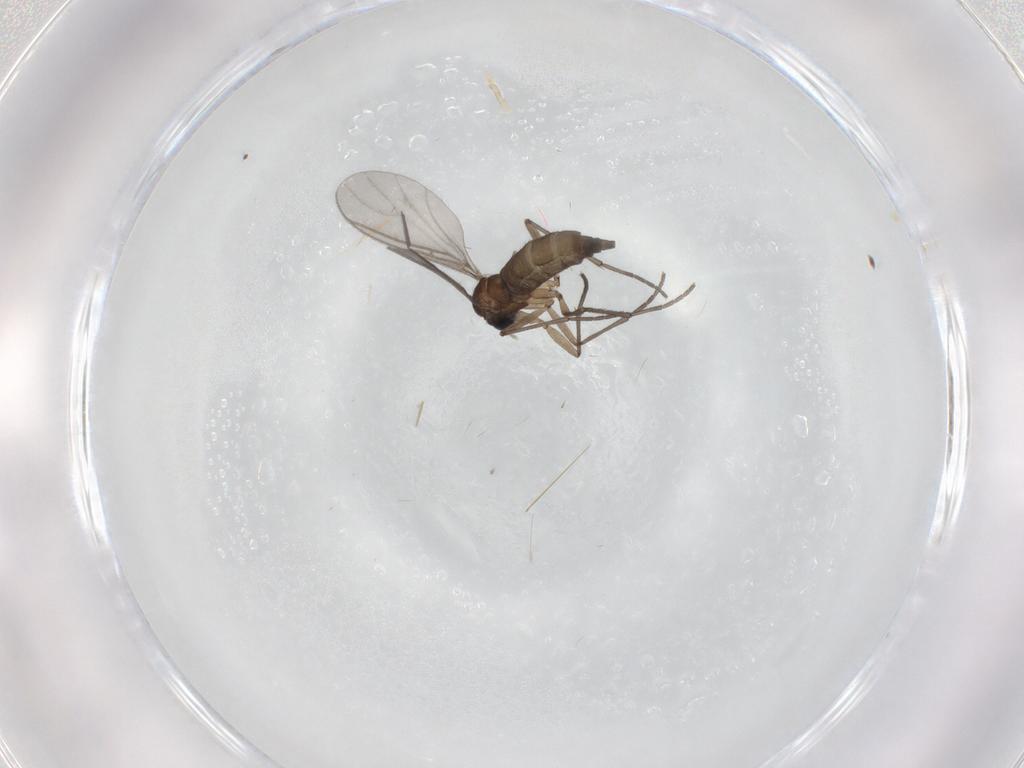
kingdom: Animalia
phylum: Arthropoda
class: Insecta
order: Diptera
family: Sciaridae
